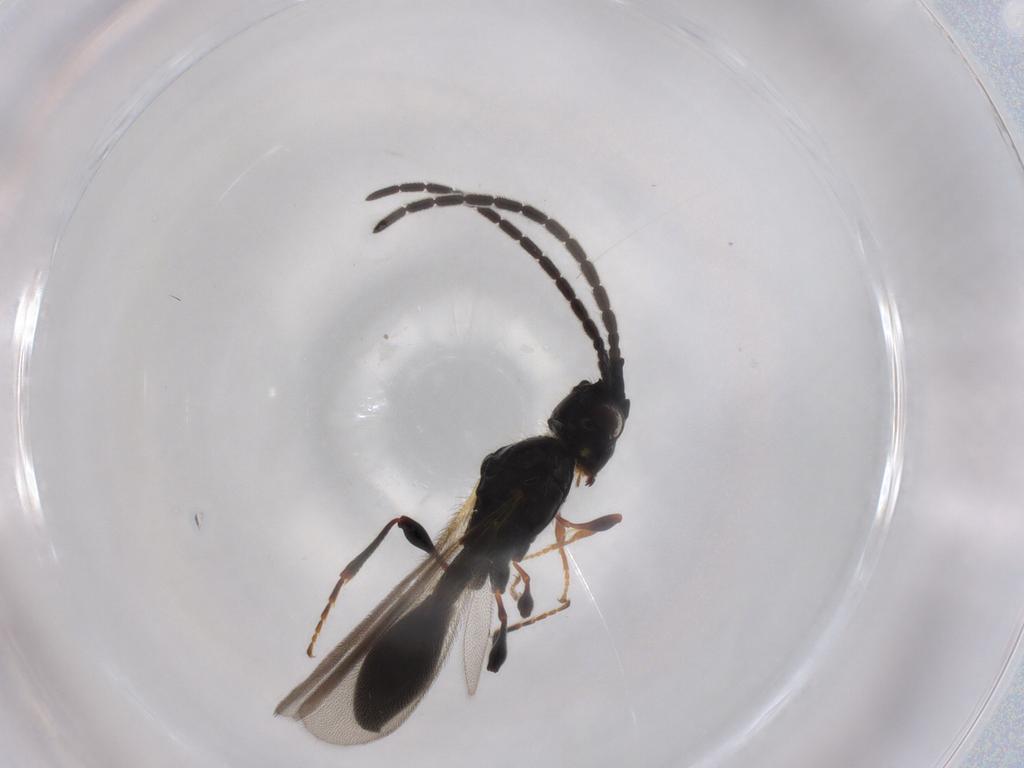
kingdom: Animalia
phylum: Arthropoda
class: Insecta
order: Hymenoptera
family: Diapriidae
